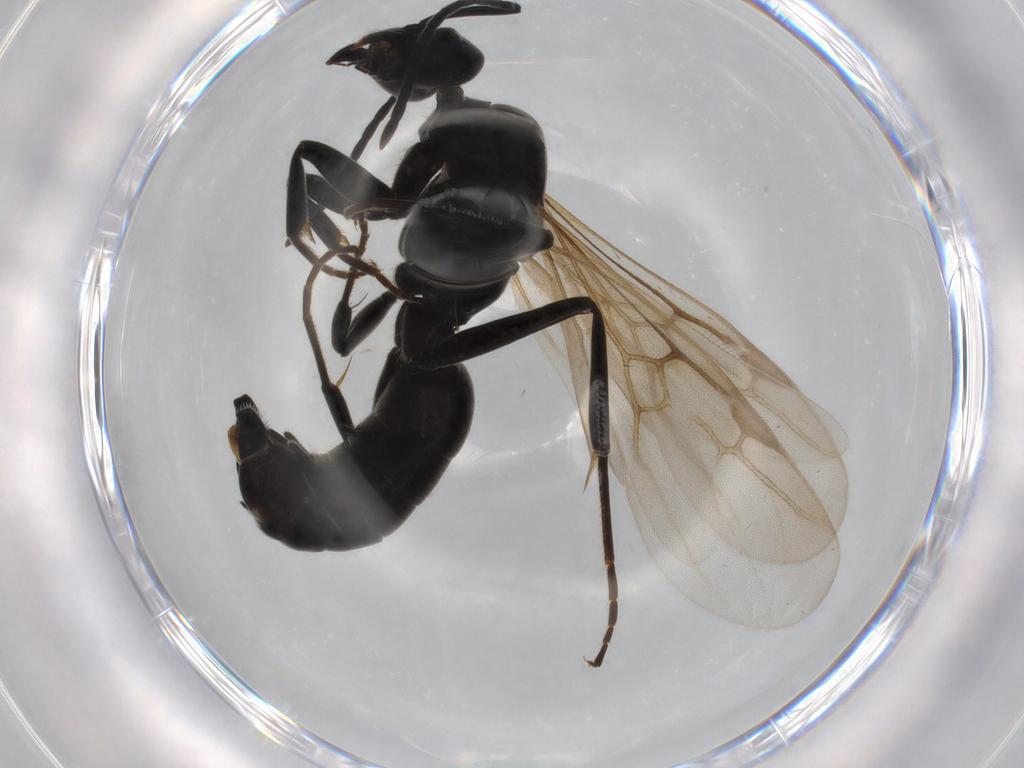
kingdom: Animalia
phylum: Arthropoda
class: Insecta
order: Hymenoptera
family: Formicidae
